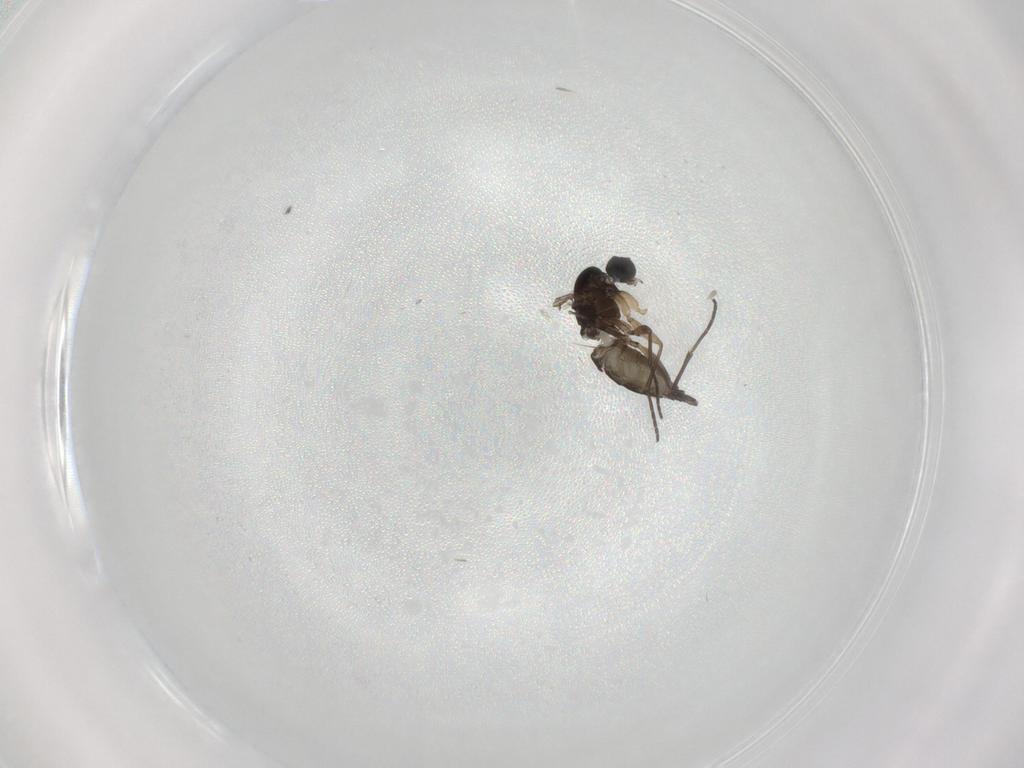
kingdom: Animalia
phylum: Arthropoda
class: Insecta
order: Diptera
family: Sciaridae
